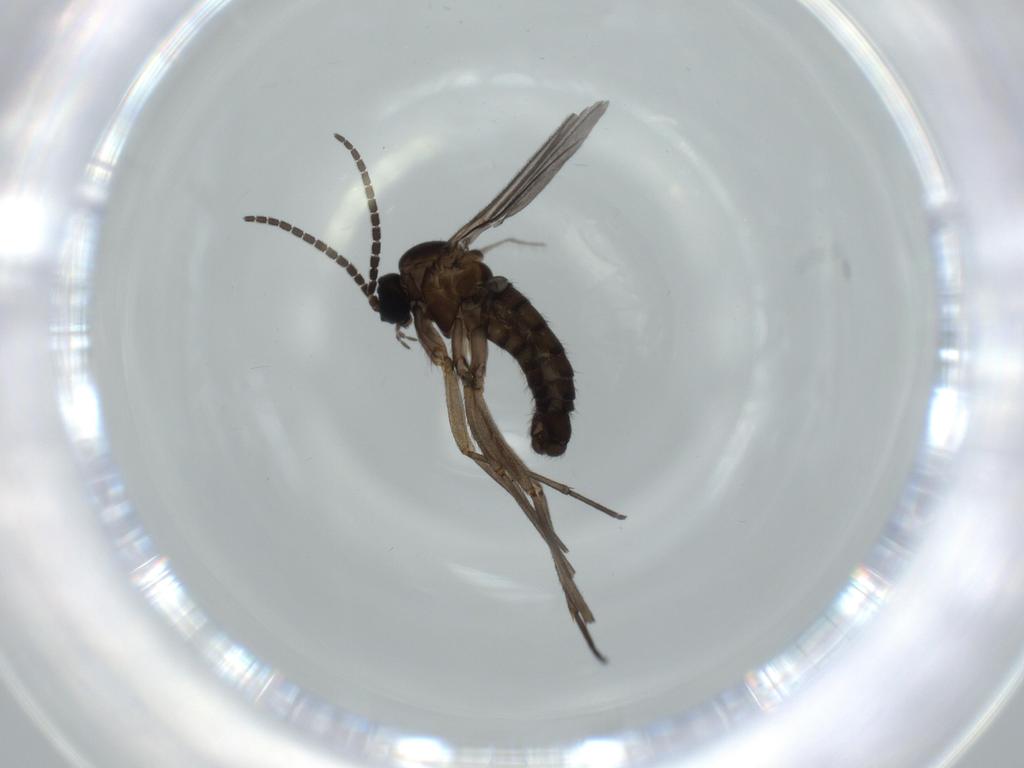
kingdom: Animalia
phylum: Arthropoda
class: Insecta
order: Diptera
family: Sciaridae
